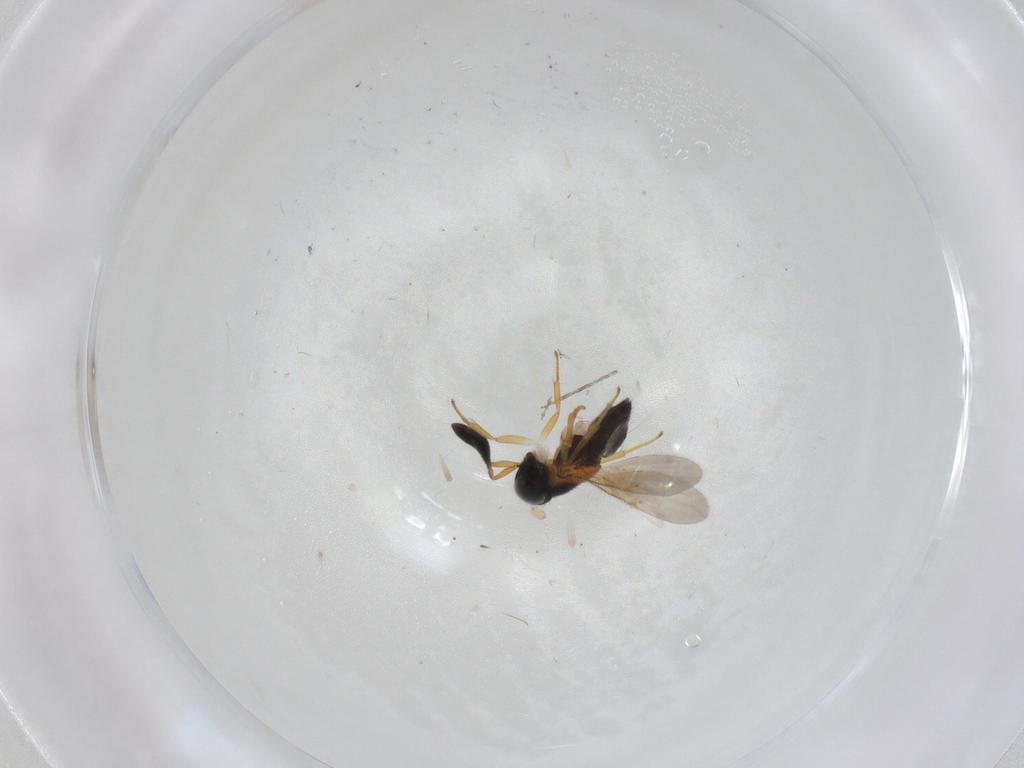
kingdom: Animalia
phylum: Arthropoda
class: Insecta
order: Hymenoptera
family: Encyrtidae
